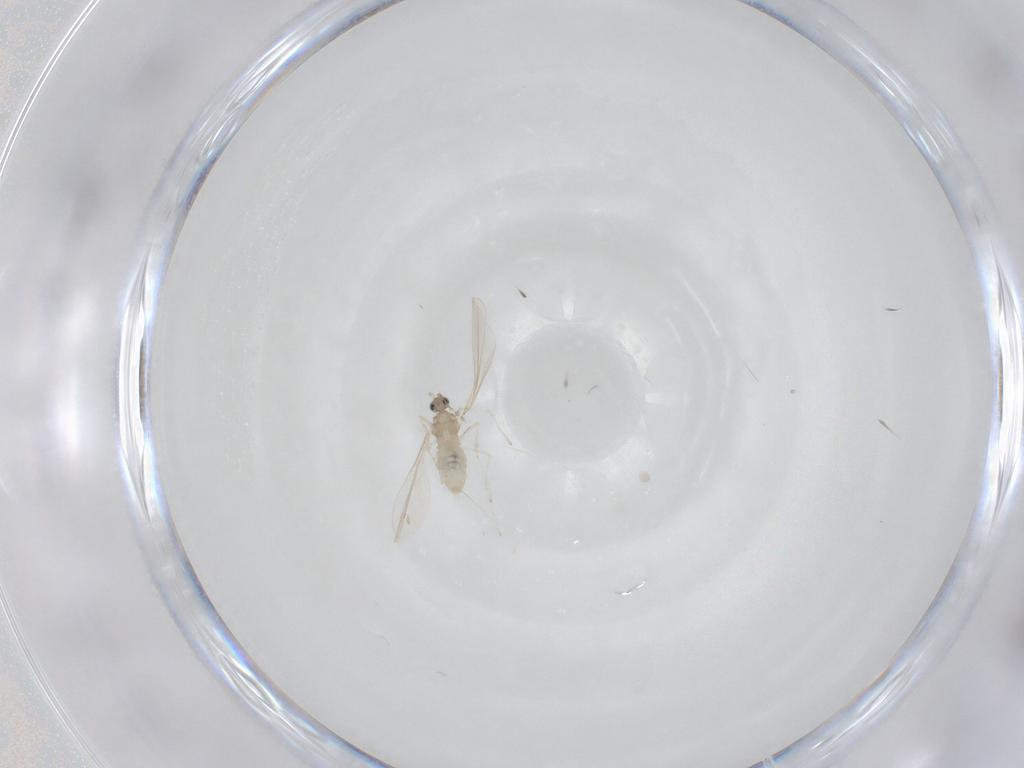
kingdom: Animalia
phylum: Arthropoda
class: Insecta
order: Diptera
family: Cecidomyiidae
